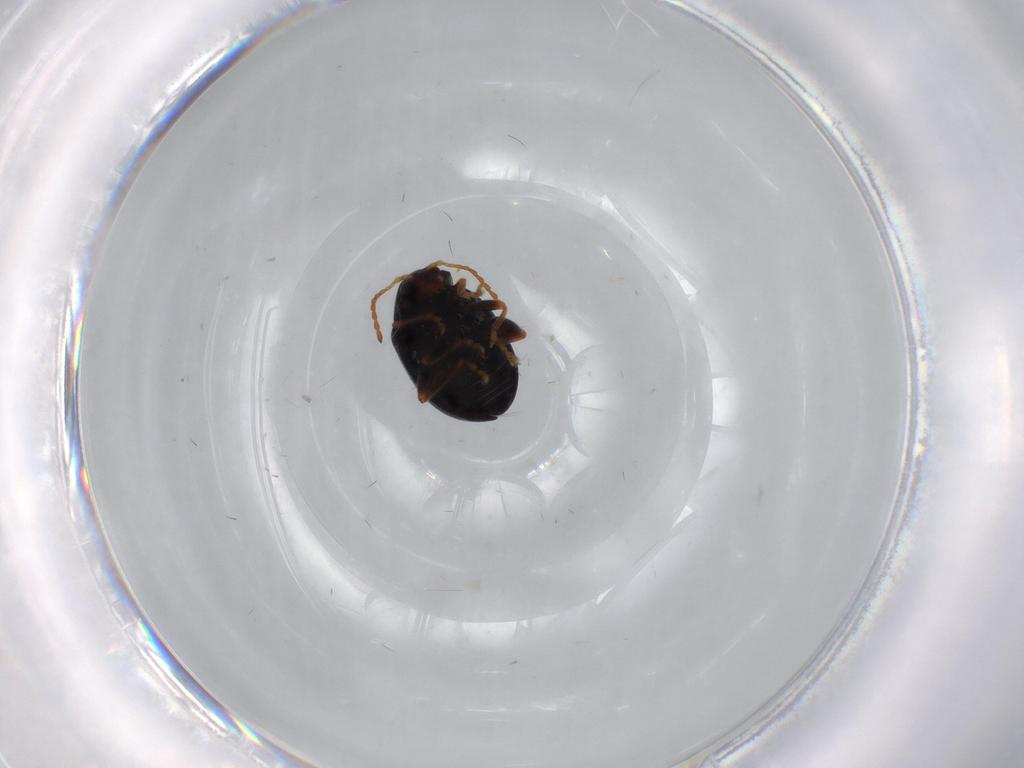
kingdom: Animalia
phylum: Arthropoda
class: Insecta
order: Coleoptera
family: Chrysomelidae
